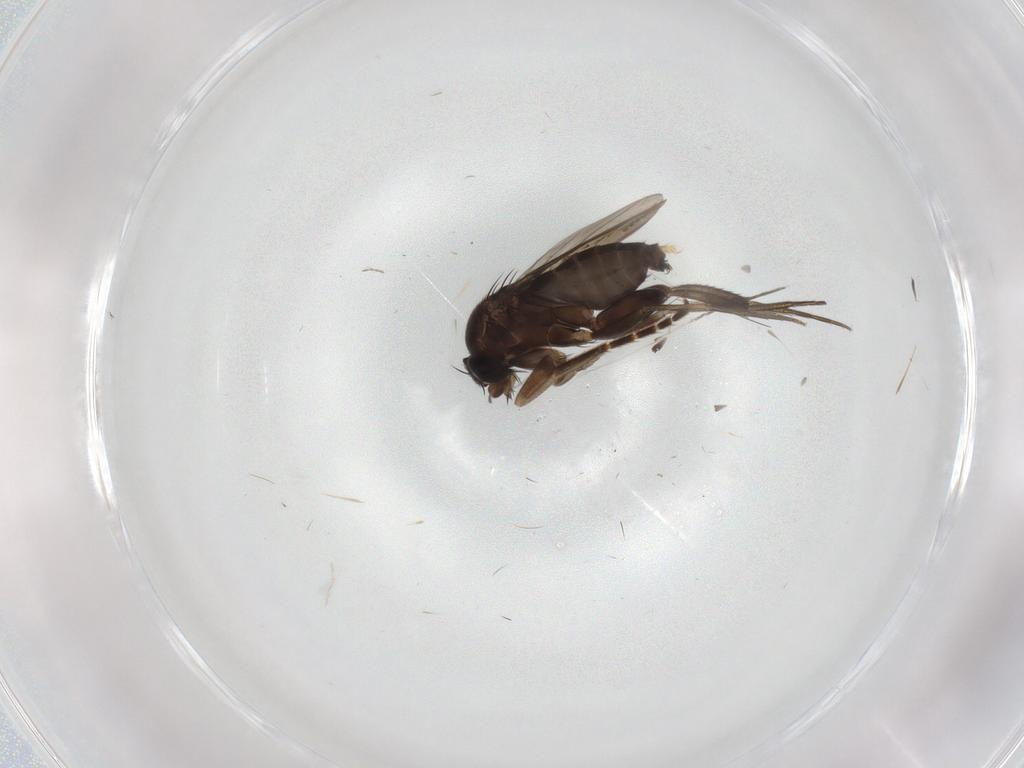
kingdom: Animalia
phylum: Arthropoda
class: Insecta
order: Diptera
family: Phoridae
